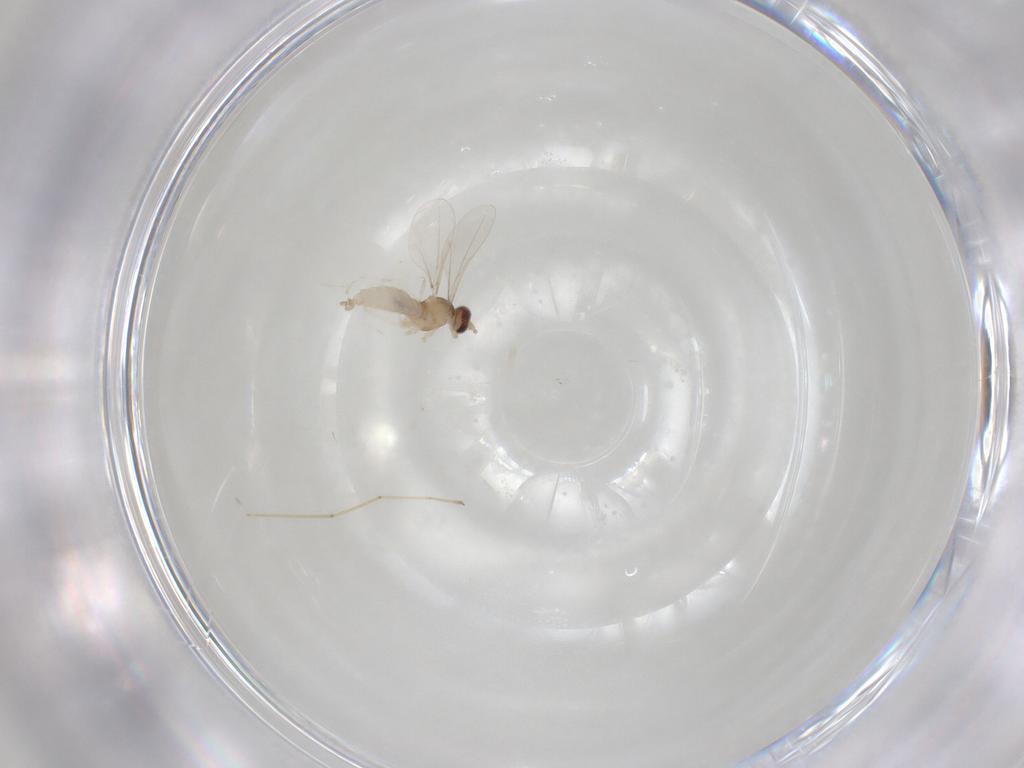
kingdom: Animalia
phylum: Arthropoda
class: Insecta
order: Diptera
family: Cecidomyiidae
